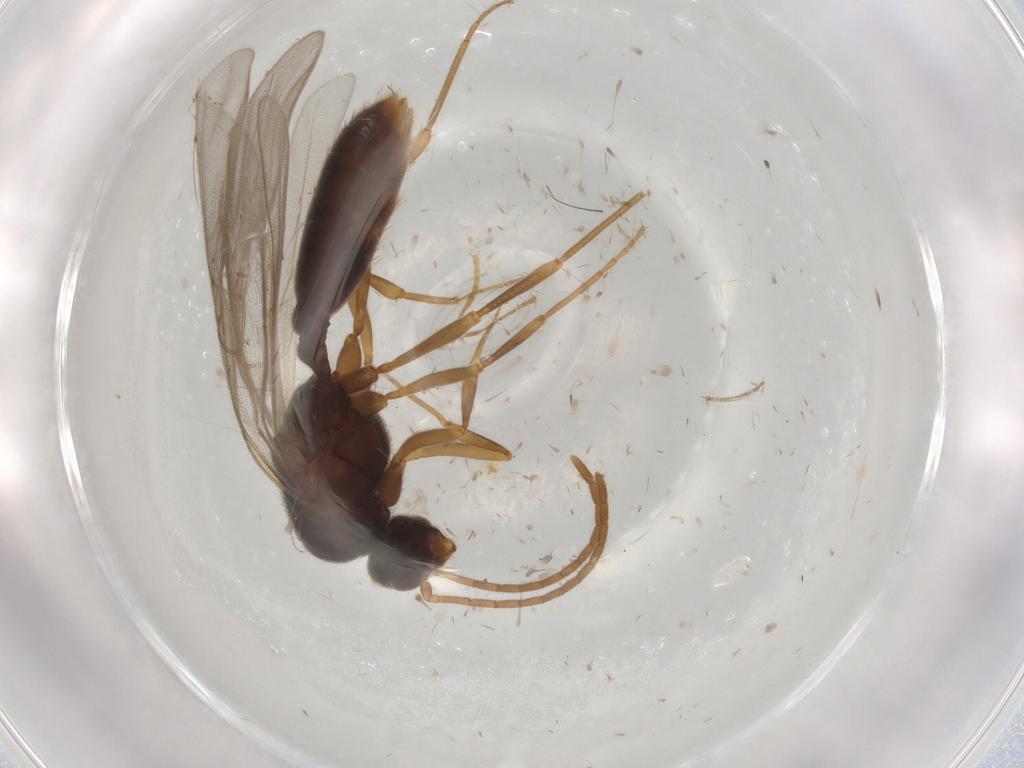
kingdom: Animalia
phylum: Arthropoda
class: Insecta
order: Hymenoptera
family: Formicidae
